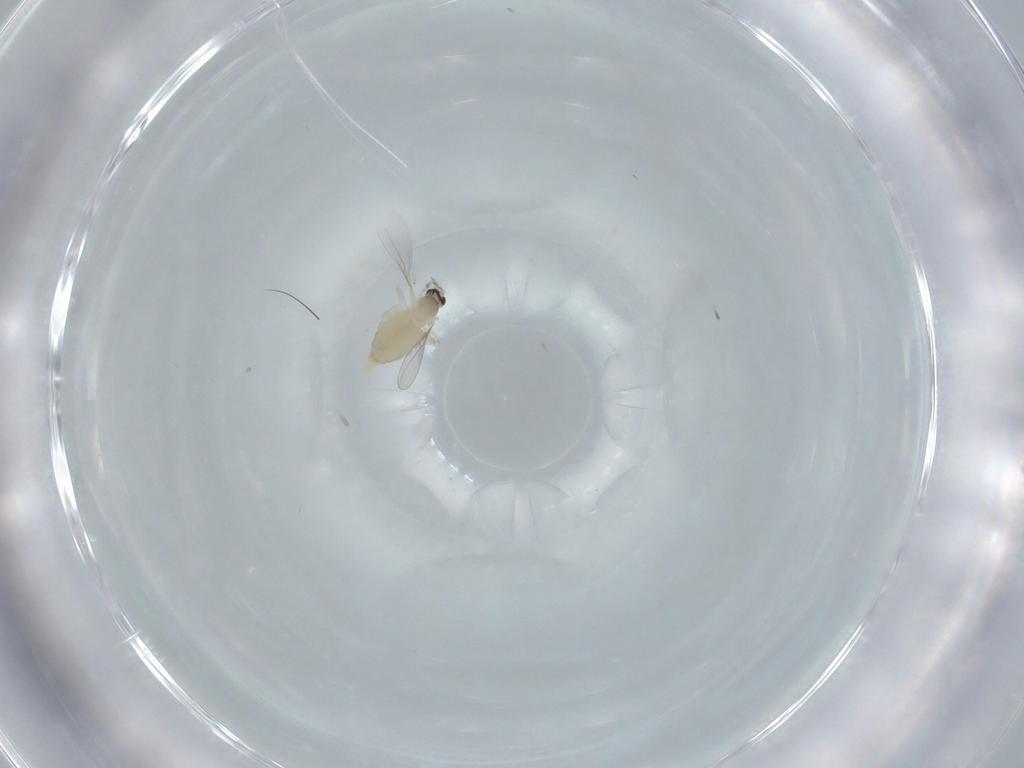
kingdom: Animalia
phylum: Arthropoda
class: Insecta
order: Diptera
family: Cecidomyiidae
